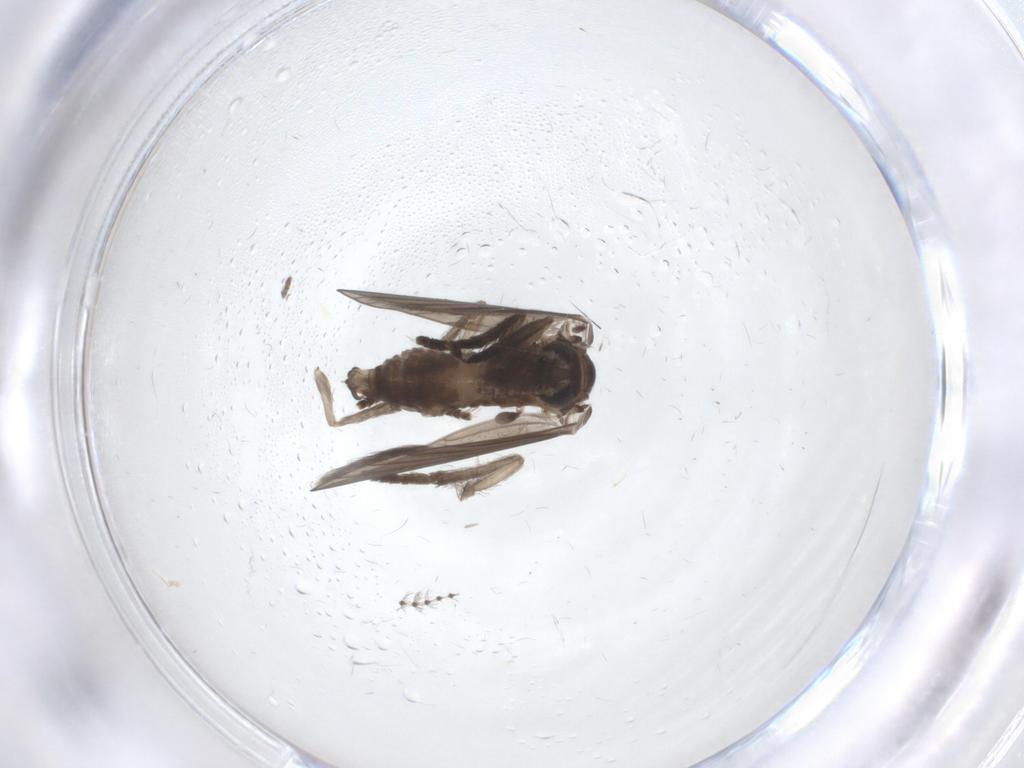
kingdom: Animalia
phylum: Arthropoda
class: Insecta
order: Diptera
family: Psychodidae
